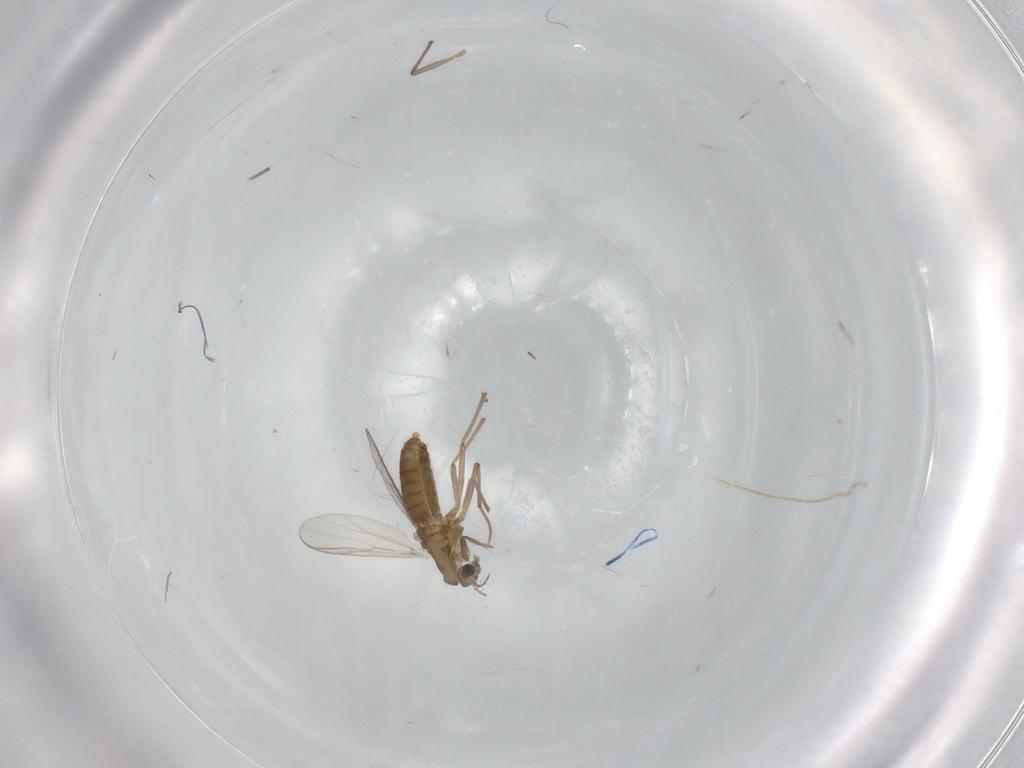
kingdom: Animalia
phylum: Arthropoda
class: Insecta
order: Diptera
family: Chironomidae
